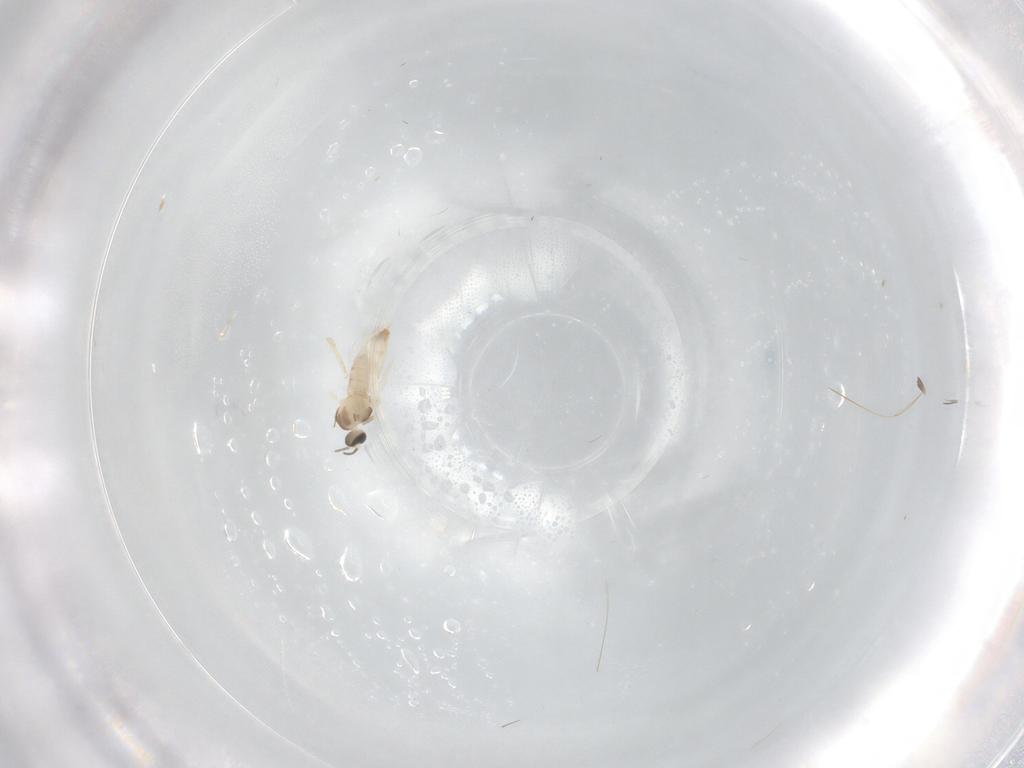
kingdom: Animalia
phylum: Arthropoda
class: Insecta
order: Diptera
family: Cecidomyiidae
